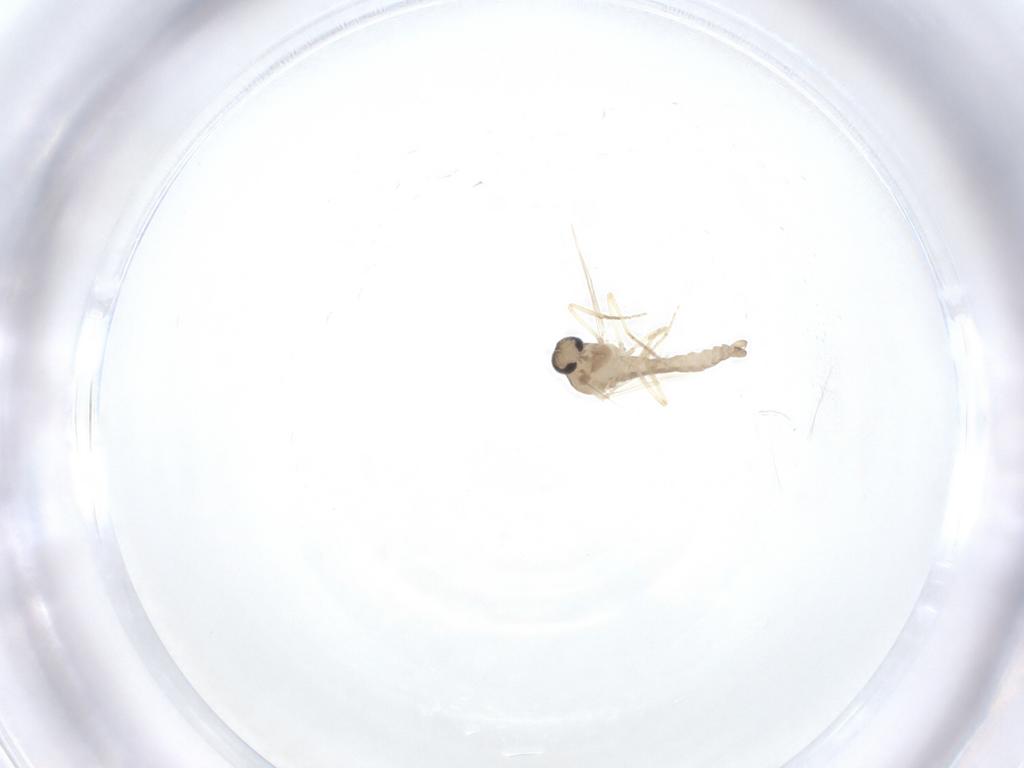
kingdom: Animalia
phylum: Arthropoda
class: Insecta
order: Diptera
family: Ceratopogonidae
